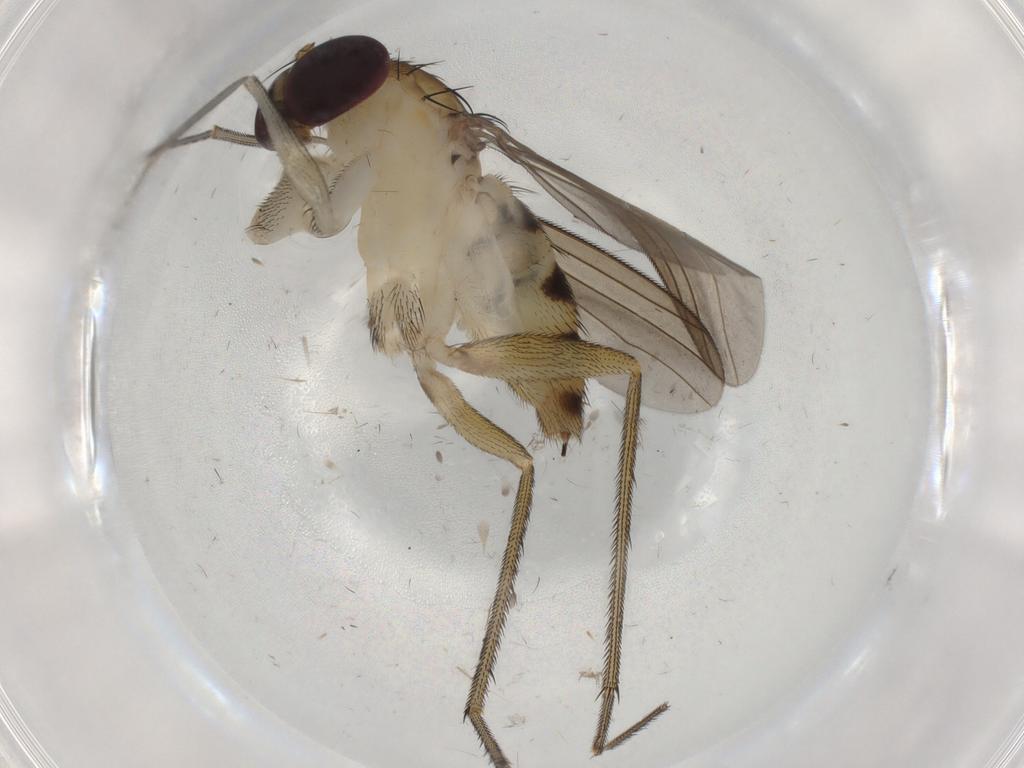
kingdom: Animalia
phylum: Arthropoda
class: Insecta
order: Diptera
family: Dolichopodidae
